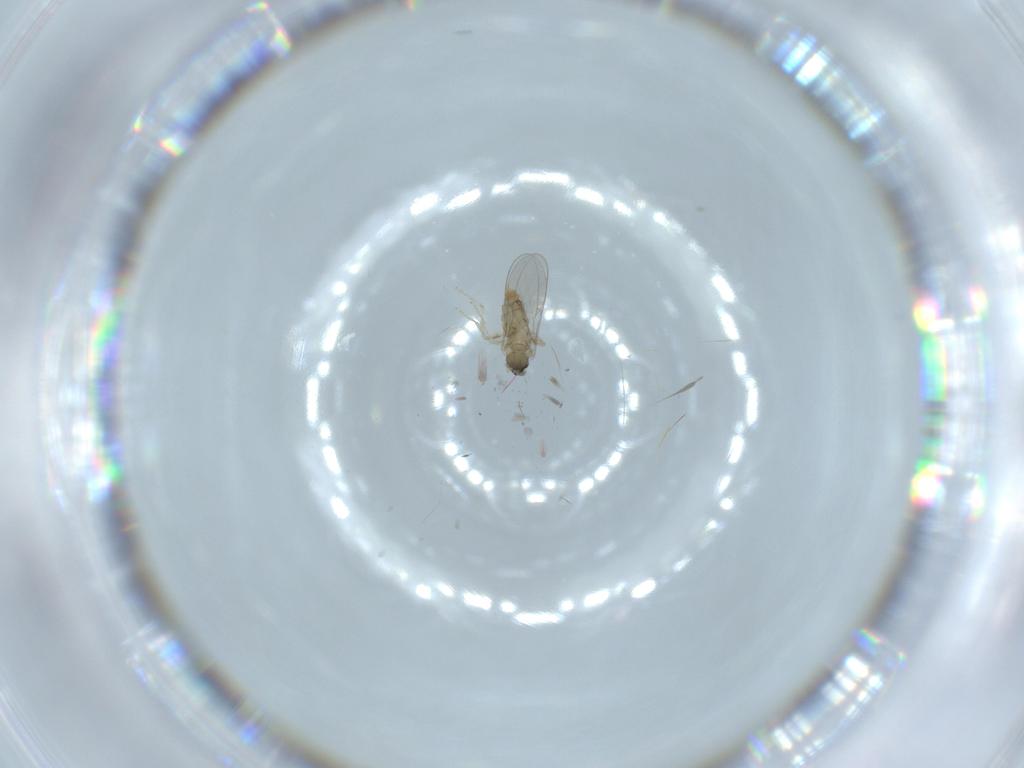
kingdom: Animalia
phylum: Arthropoda
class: Insecta
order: Diptera
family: Cecidomyiidae
